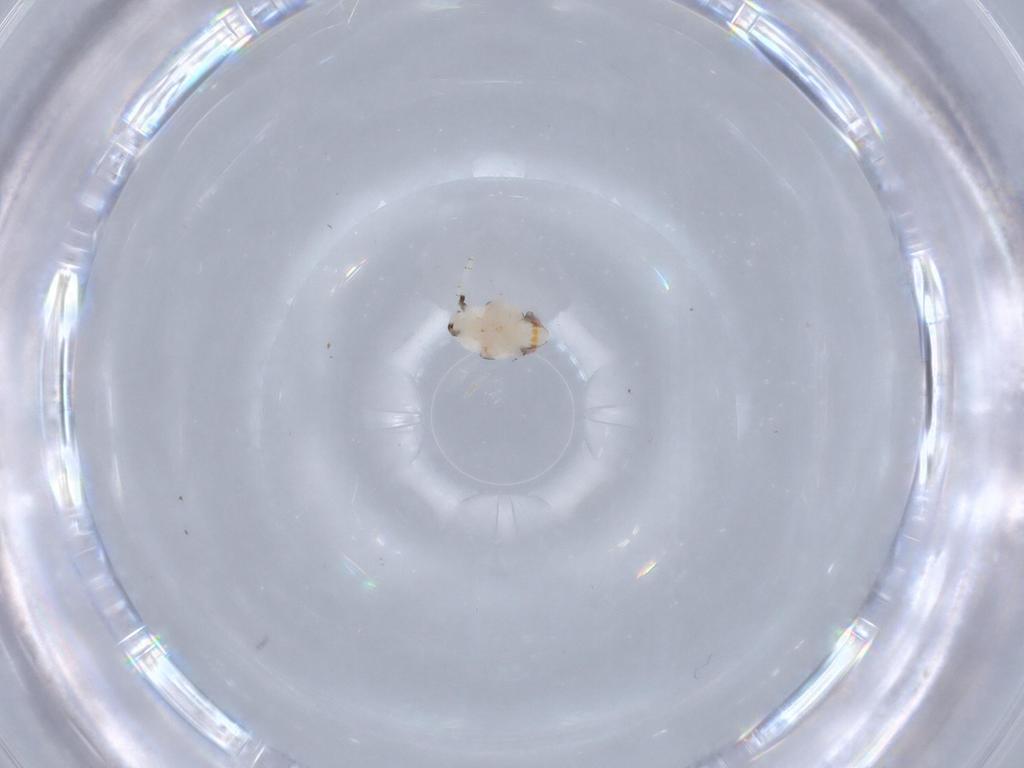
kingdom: Animalia
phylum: Arthropoda
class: Insecta
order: Hemiptera
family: Nogodinidae
